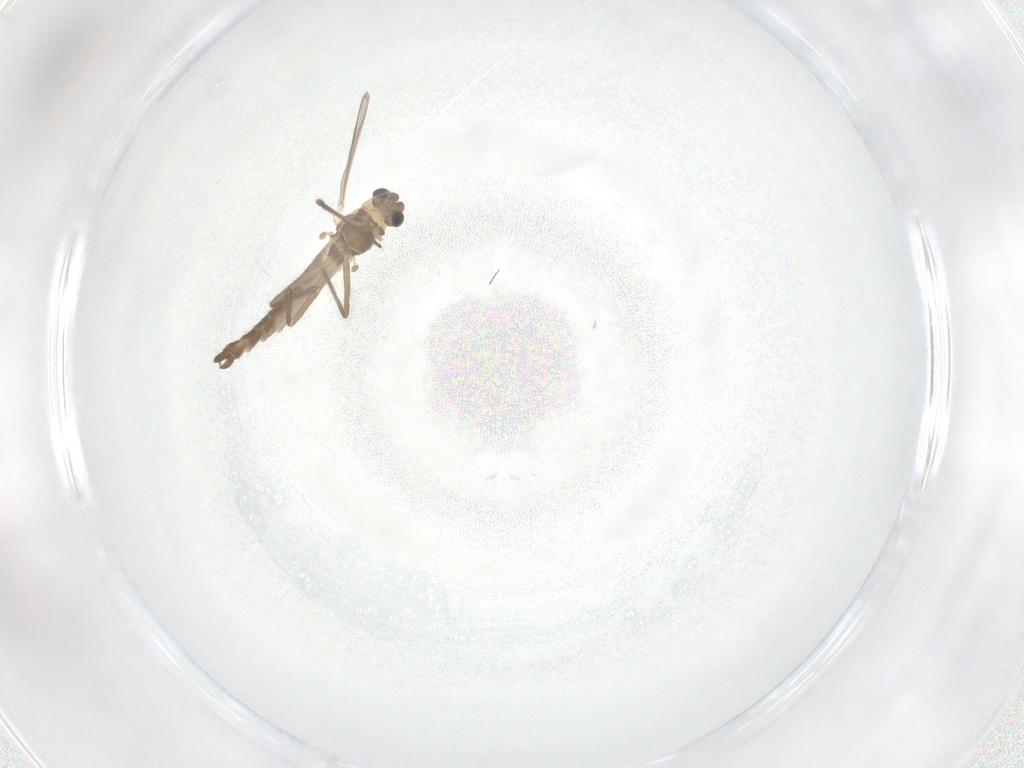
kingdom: Animalia
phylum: Arthropoda
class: Insecta
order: Diptera
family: Chironomidae
